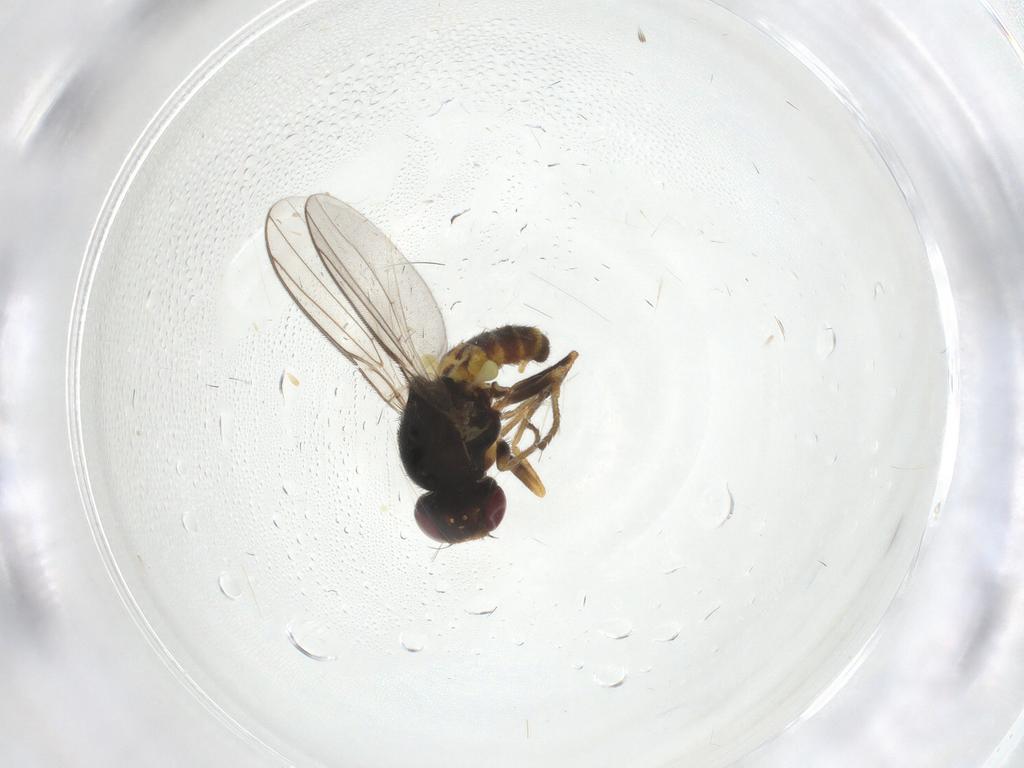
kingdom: Animalia
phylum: Arthropoda
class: Insecta
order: Diptera
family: Chloropidae
